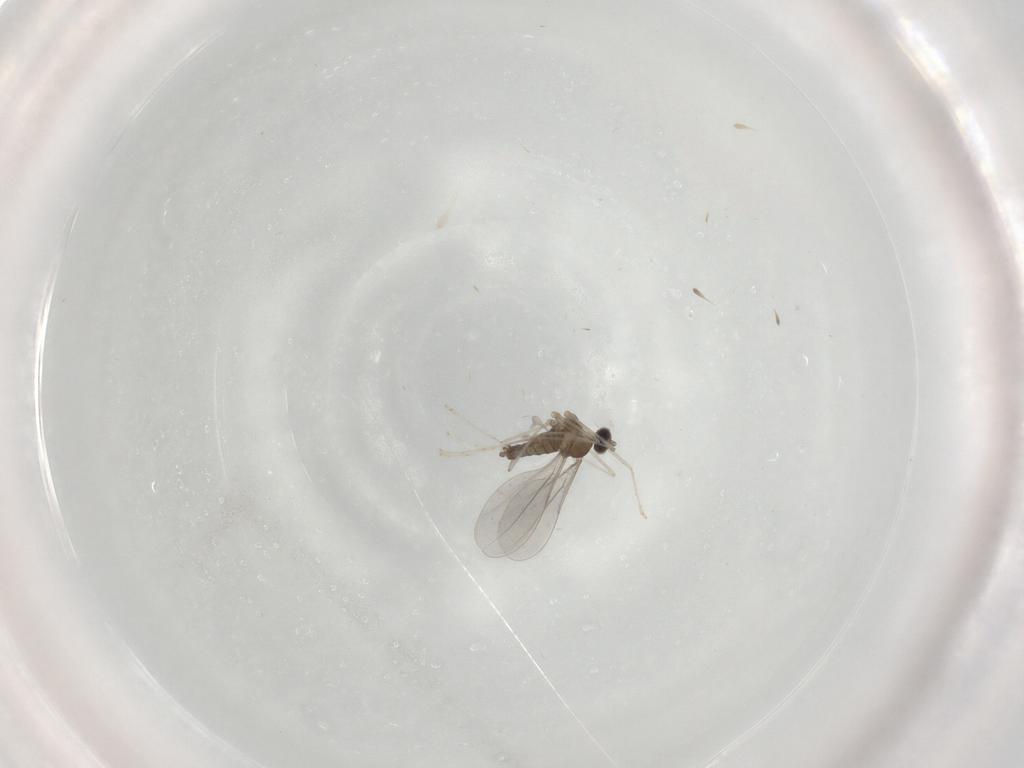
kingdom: Animalia
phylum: Arthropoda
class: Insecta
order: Diptera
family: Cecidomyiidae
